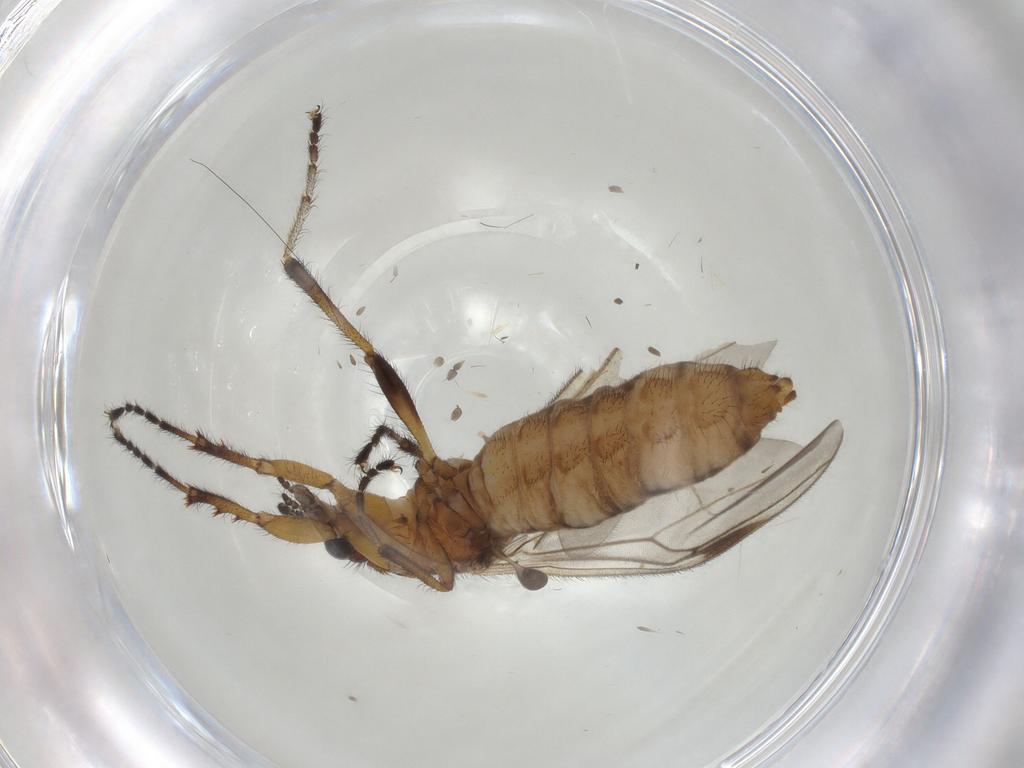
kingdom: Animalia
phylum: Arthropoda
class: Insecta
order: Diptera
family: Bibionidae
